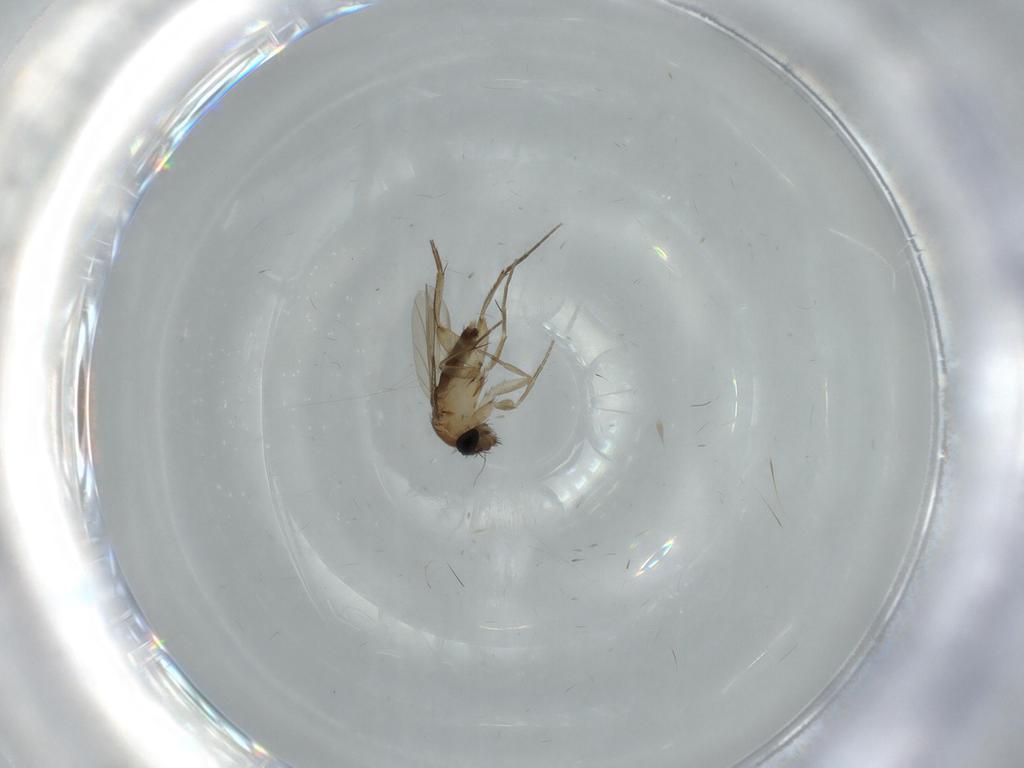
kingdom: Animalia
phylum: Arthropoda
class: Insecta
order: Diptera
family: Phoridae
